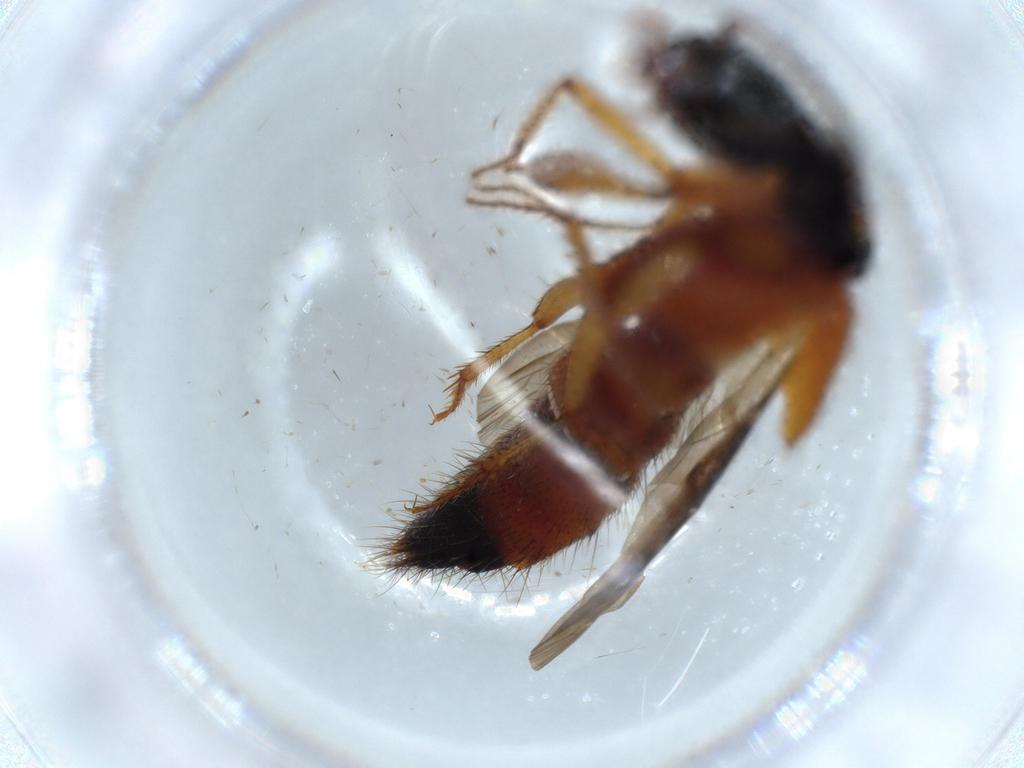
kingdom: Animalia
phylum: Arthropoda
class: Insecta
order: Coleoptera
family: Staphylinidae
